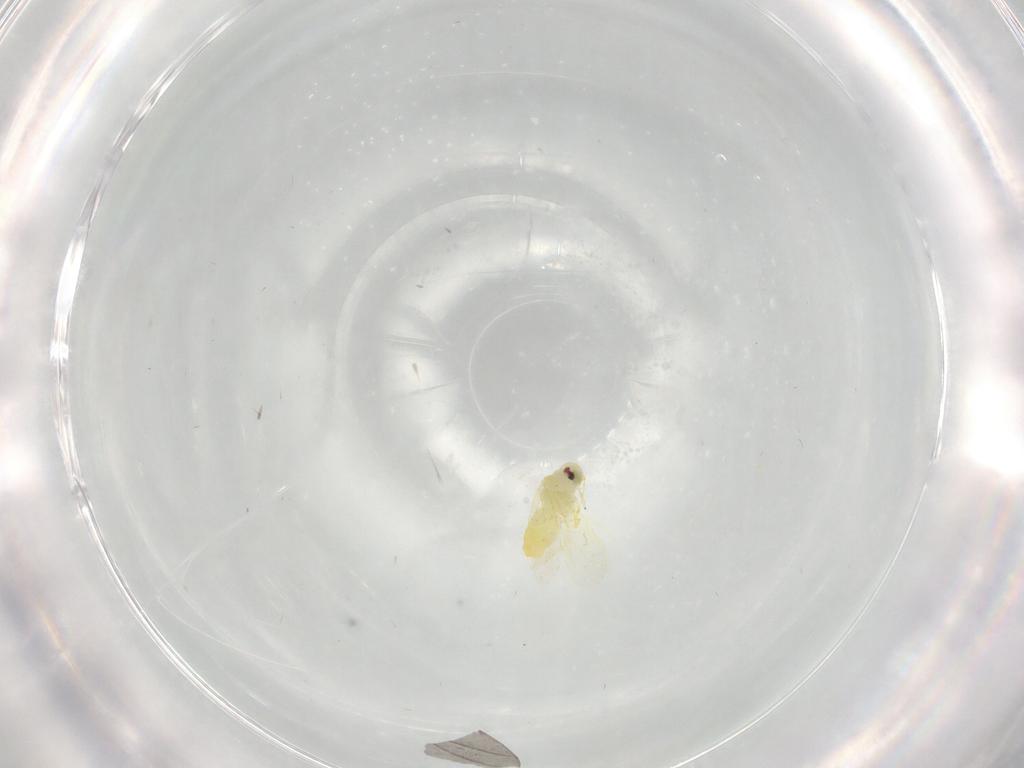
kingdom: Animalia
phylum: Arthropoda
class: Insecta
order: Hemiptera
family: Aleyrodidae
